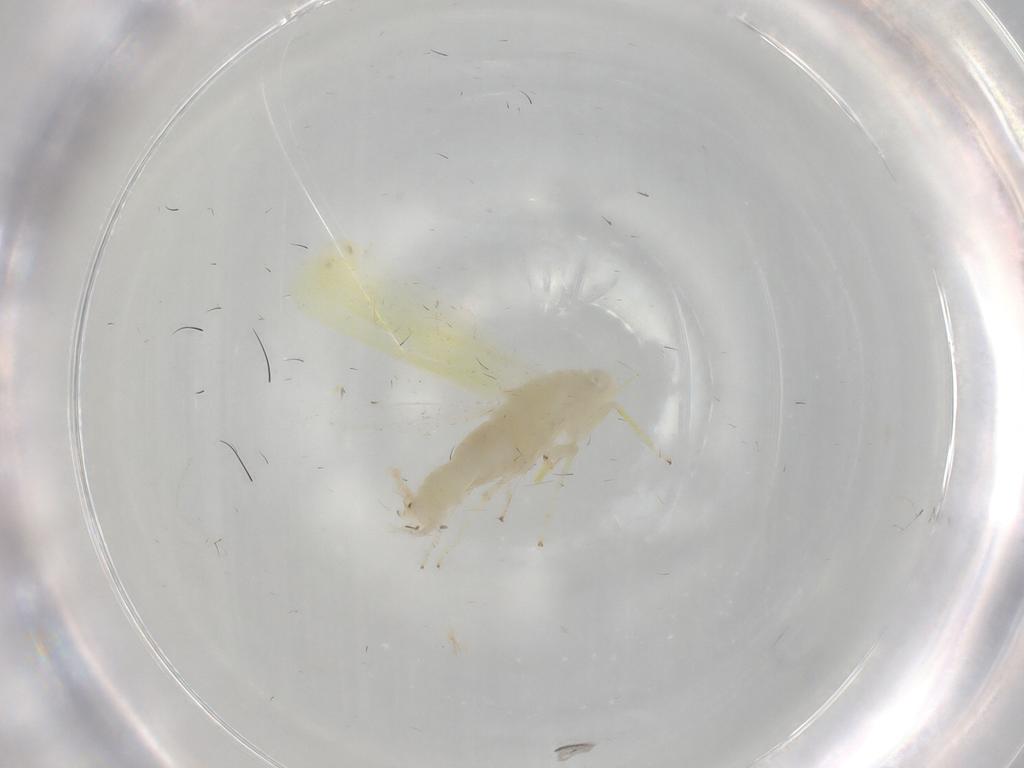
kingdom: Animalia
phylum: Arthropoda
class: Insecta
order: Hemiptera
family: Cicadellidae
